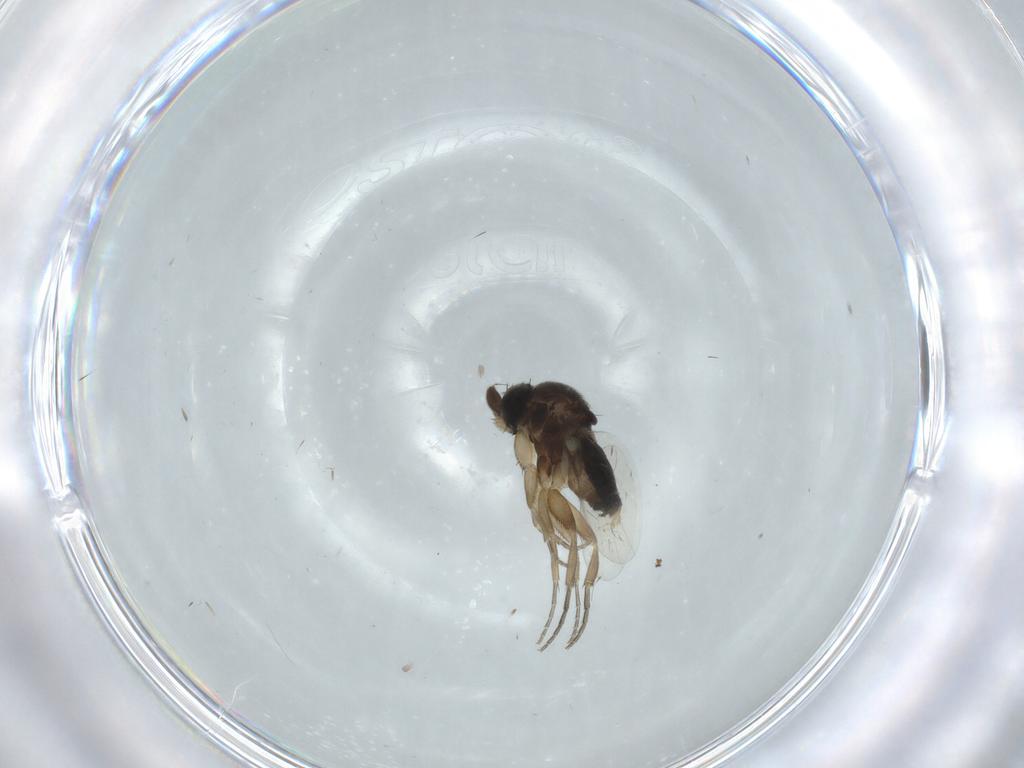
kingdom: Animalia
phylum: Arthropoda
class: Insecta
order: Diptera
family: Phoridae
